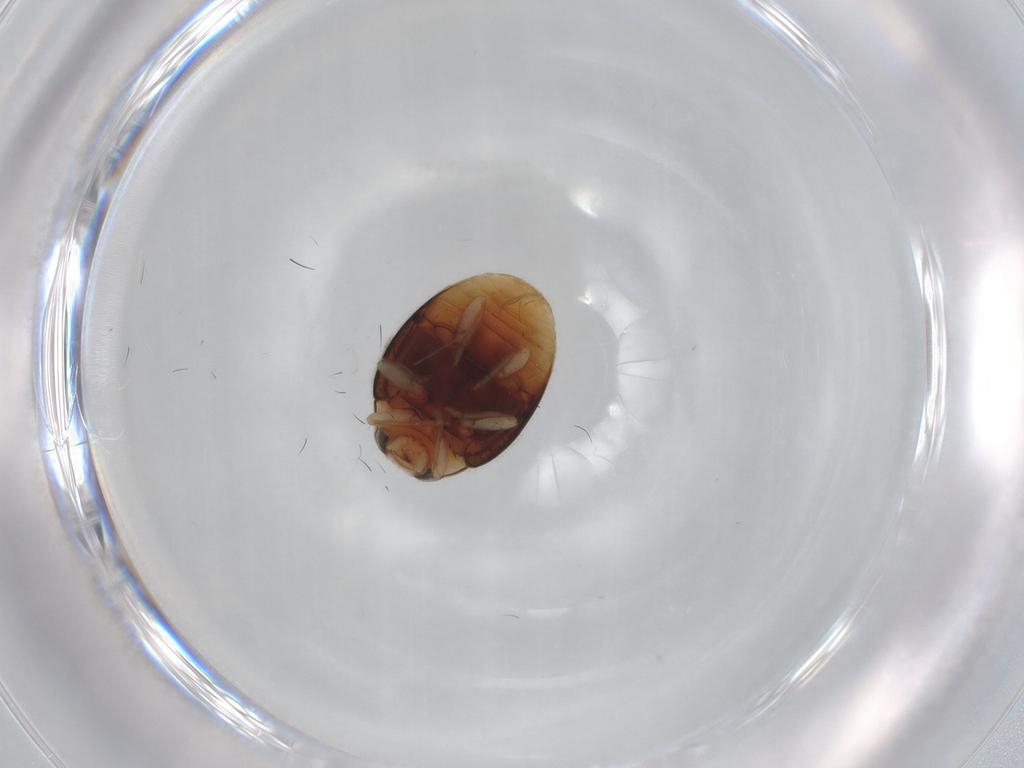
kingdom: Animalia
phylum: Arthropoda
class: Insecta
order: Coleoptera
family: Coccinellidae
